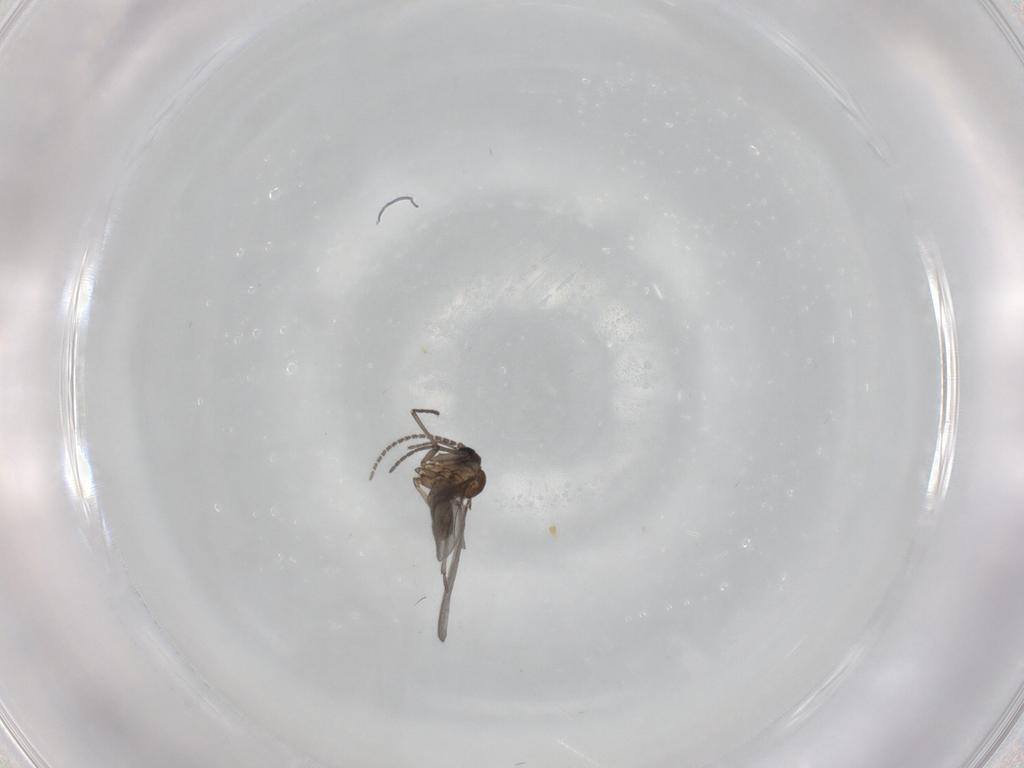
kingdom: Animalia
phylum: Arthropoda
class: Insecta
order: Diptera
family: Sciaridae
